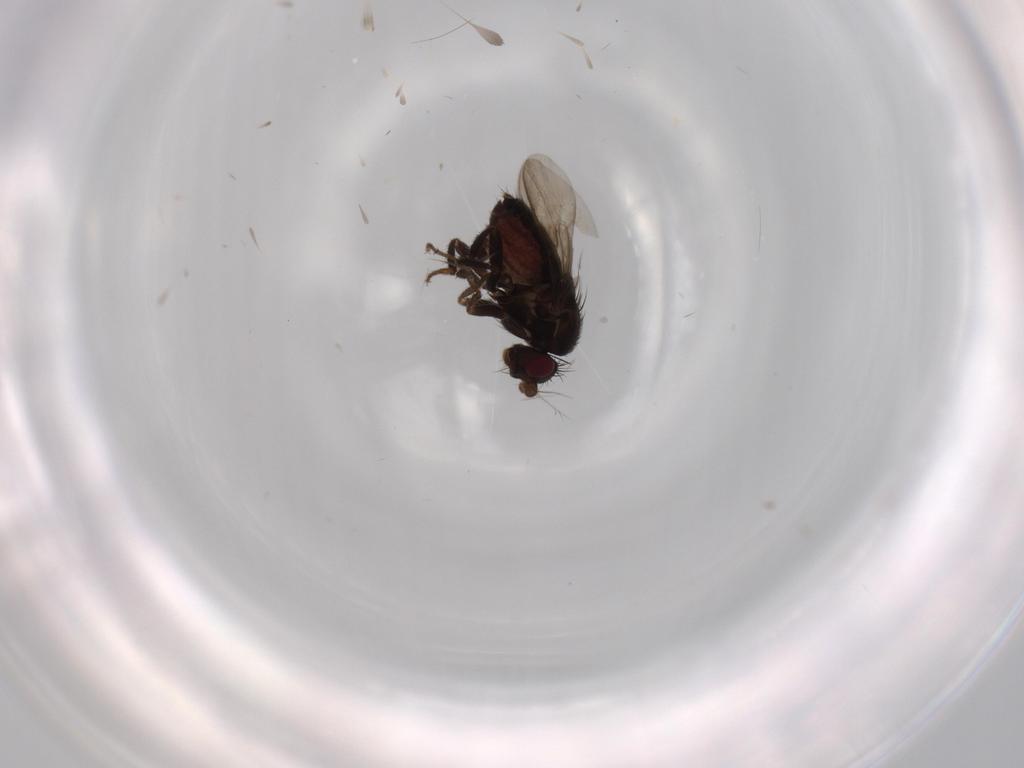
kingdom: Animalia
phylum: Arthropoda
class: Insecta
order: Diptera
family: Sphaeroceridae
